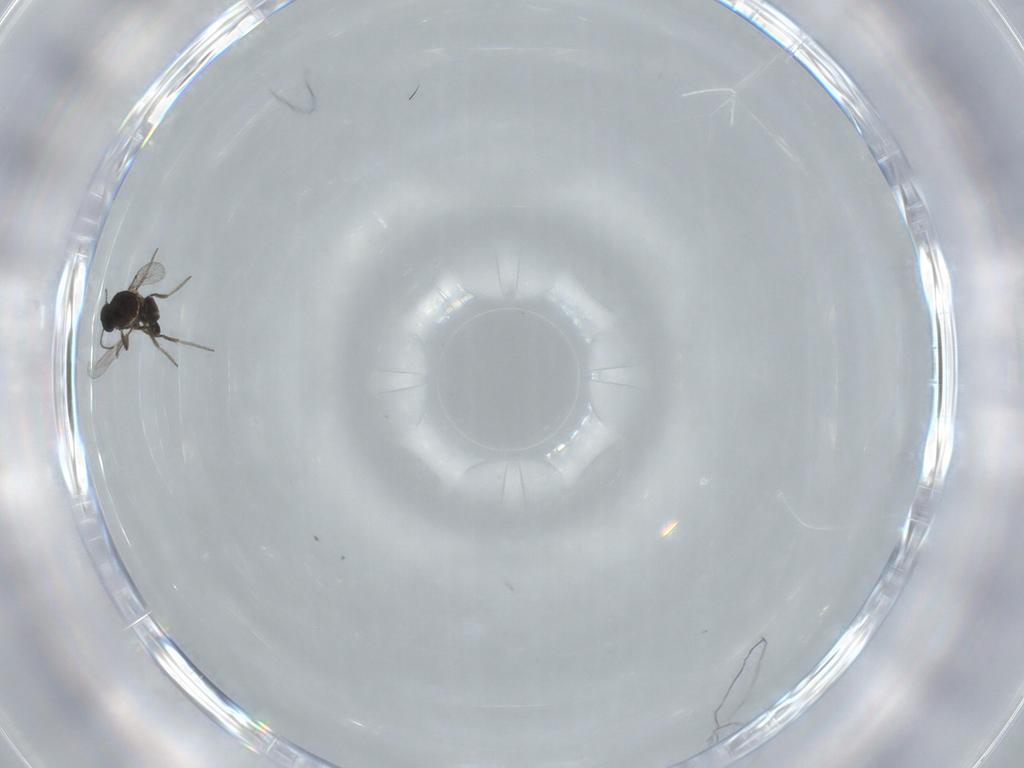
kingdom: Animalia
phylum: Arthropoda
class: Insecta
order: Diptera
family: Ceratopogonidae
